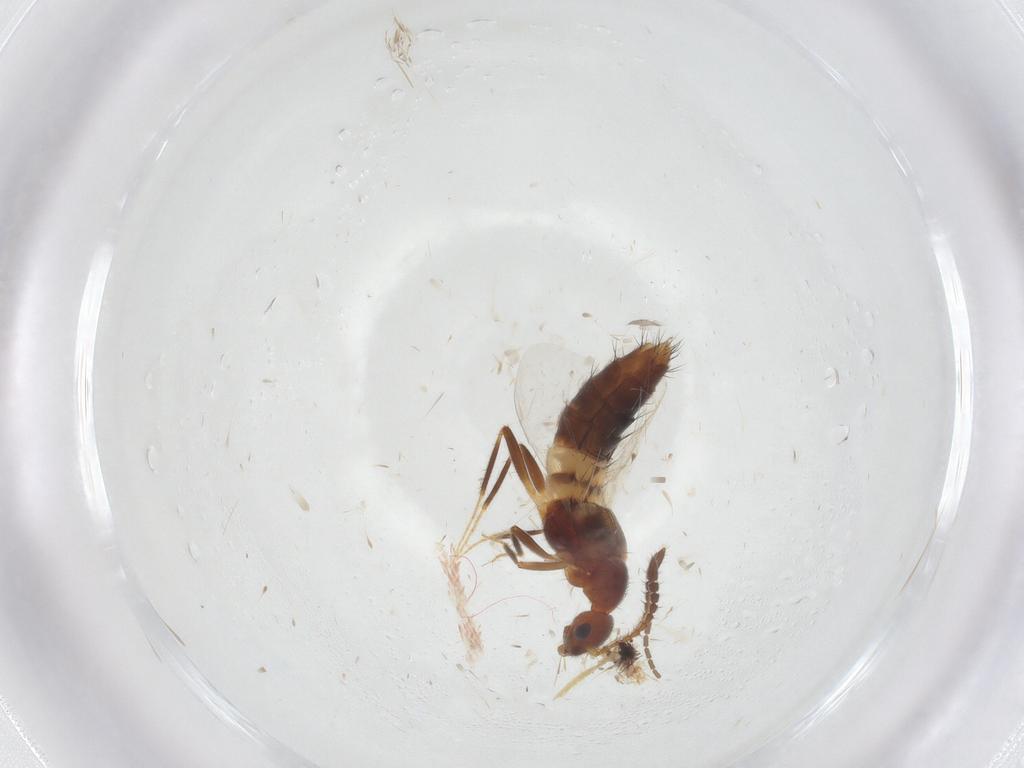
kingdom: Animalia
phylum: Arthropoda
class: Insecta
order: Coleoptera
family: Staphylinidae
